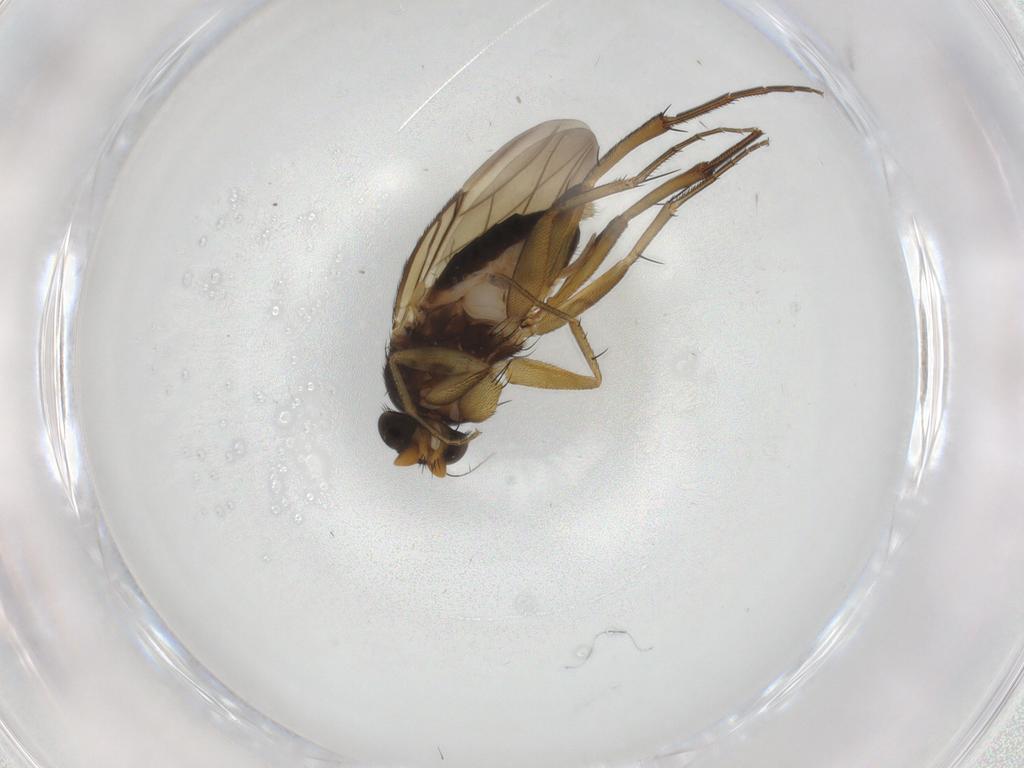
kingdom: Animalia
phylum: Arthropoda
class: Insecta
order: Diptera
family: Phoridae
